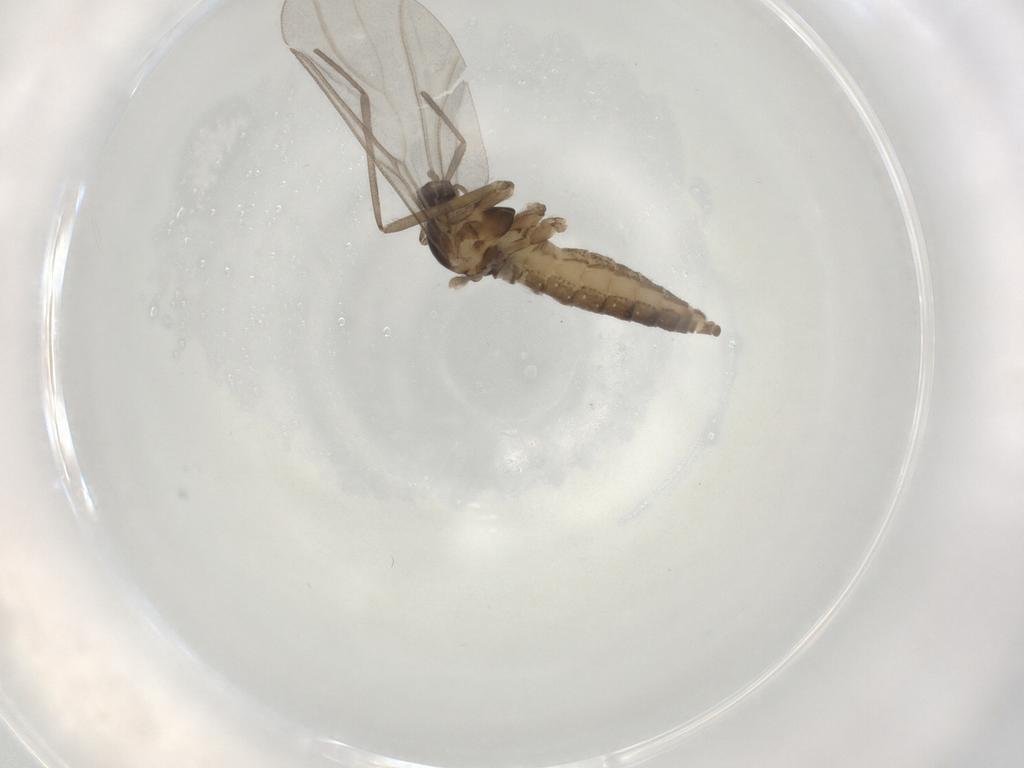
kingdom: Animalia
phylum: Arthropoda
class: Insecta
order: Diptera
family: Cecidomyiidae
